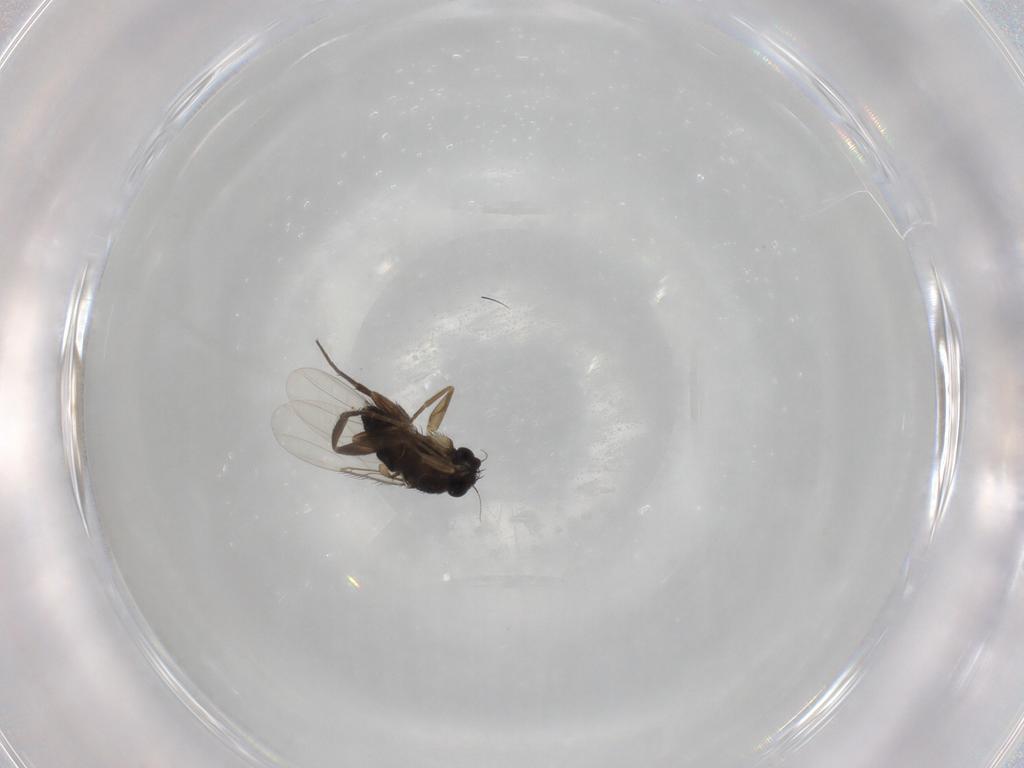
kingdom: Animalia
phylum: Arthropoda
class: Insecta
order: Diptera
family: Phoridae
